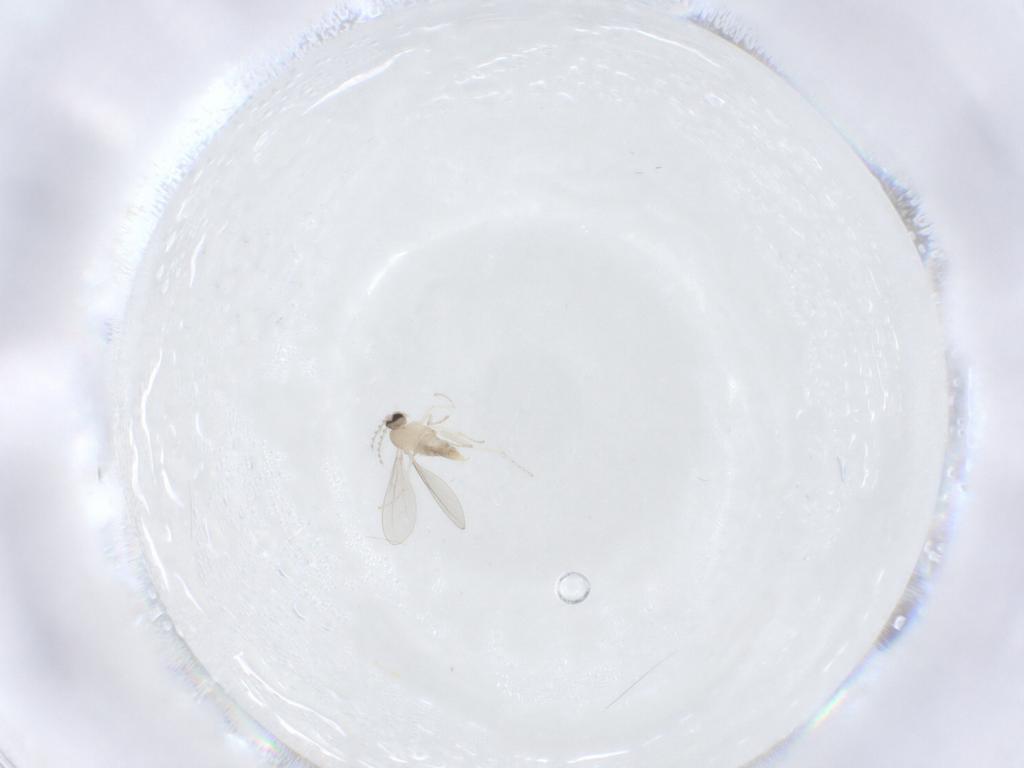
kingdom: Animalia
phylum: Arthropoda
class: Insecta
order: Diptera
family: Cecidomyiidae
